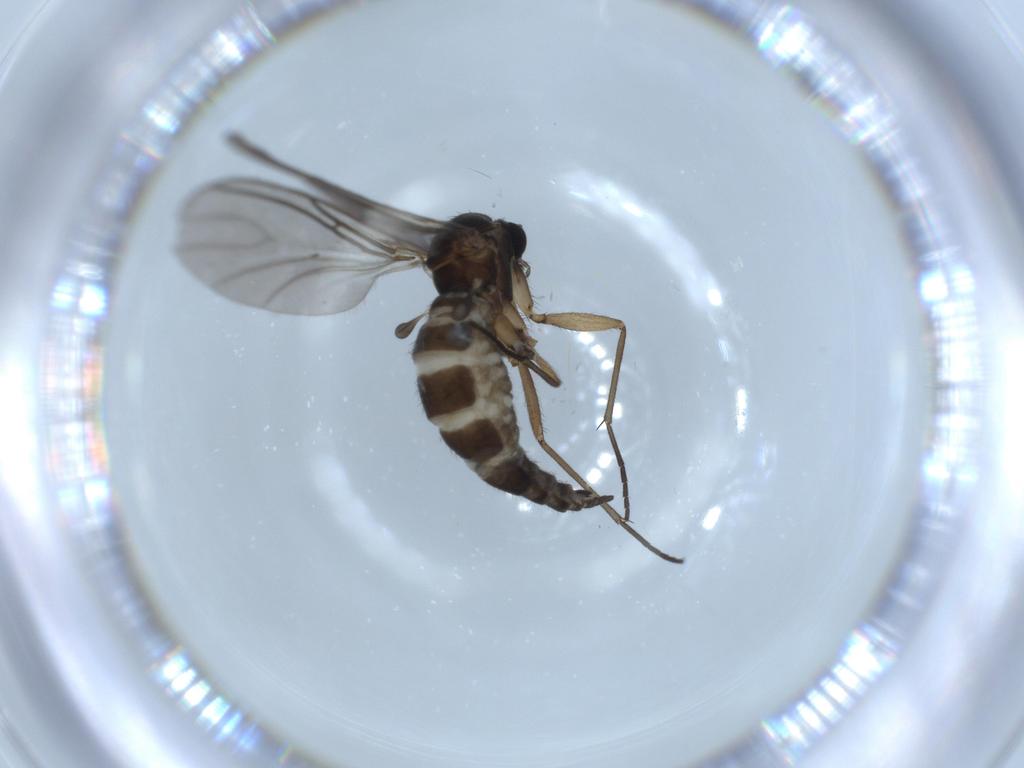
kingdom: Animalia
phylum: Arthropoda
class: Insecta
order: Diptera
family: Sciaridae
